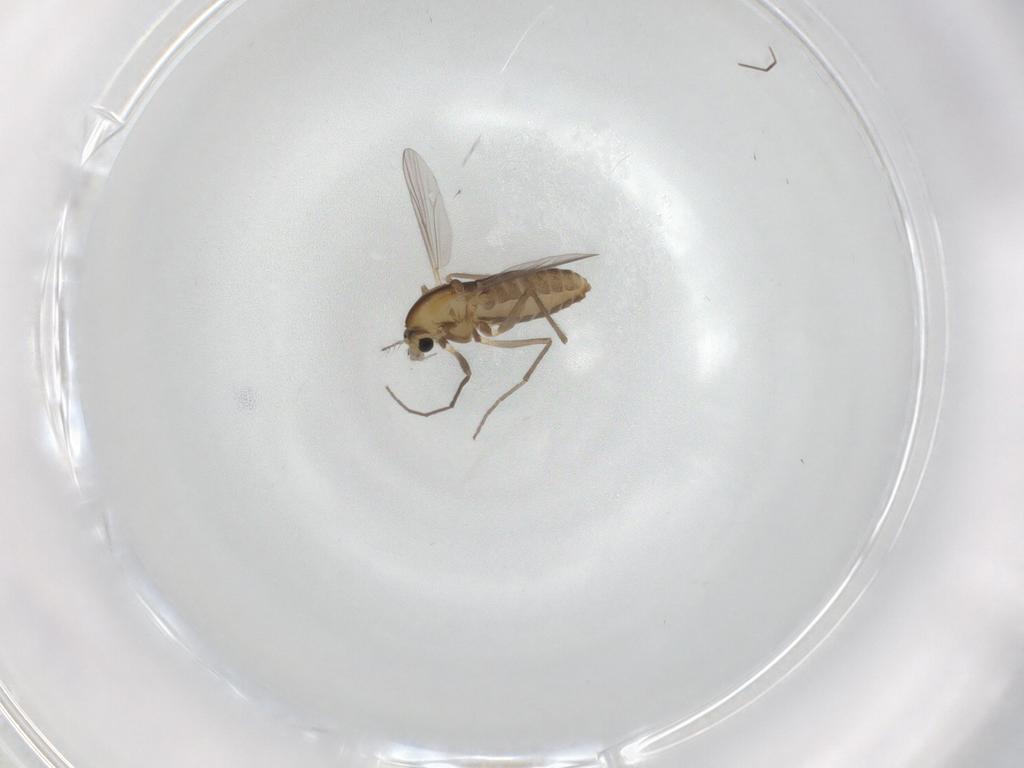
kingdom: Animalia
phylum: Arthropoda
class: Insecta
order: Diptera
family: Chironomidae
